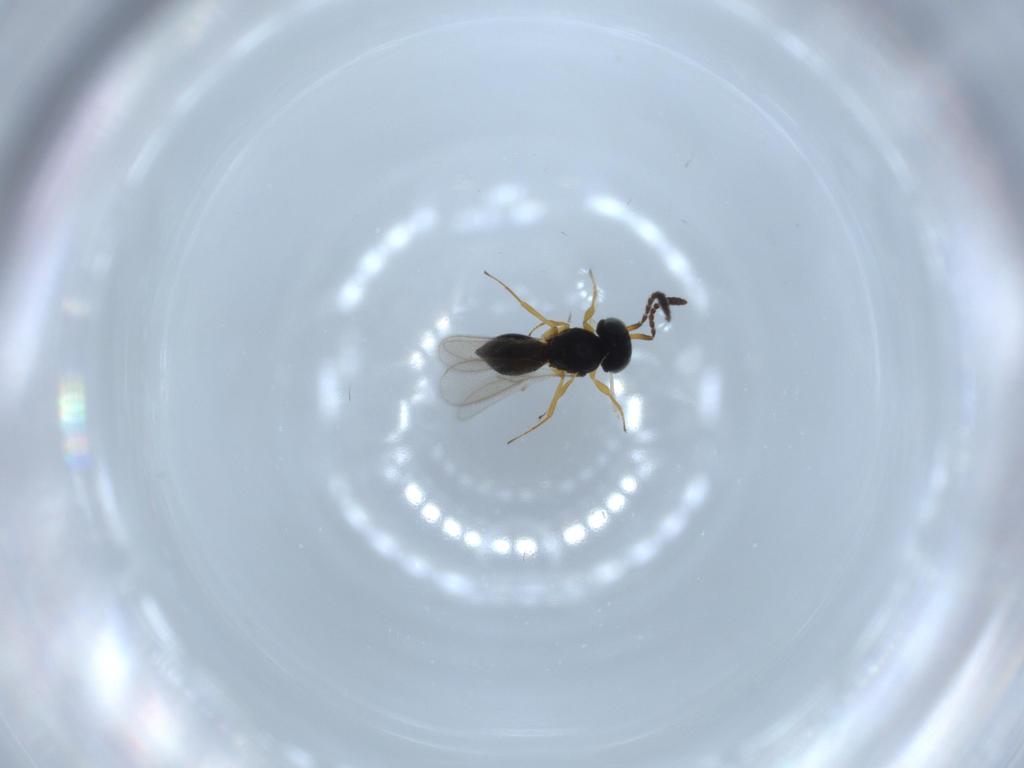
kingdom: Animalia
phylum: Arthropoda
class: Insecta
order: Hymenoptera
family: Scelionidae
